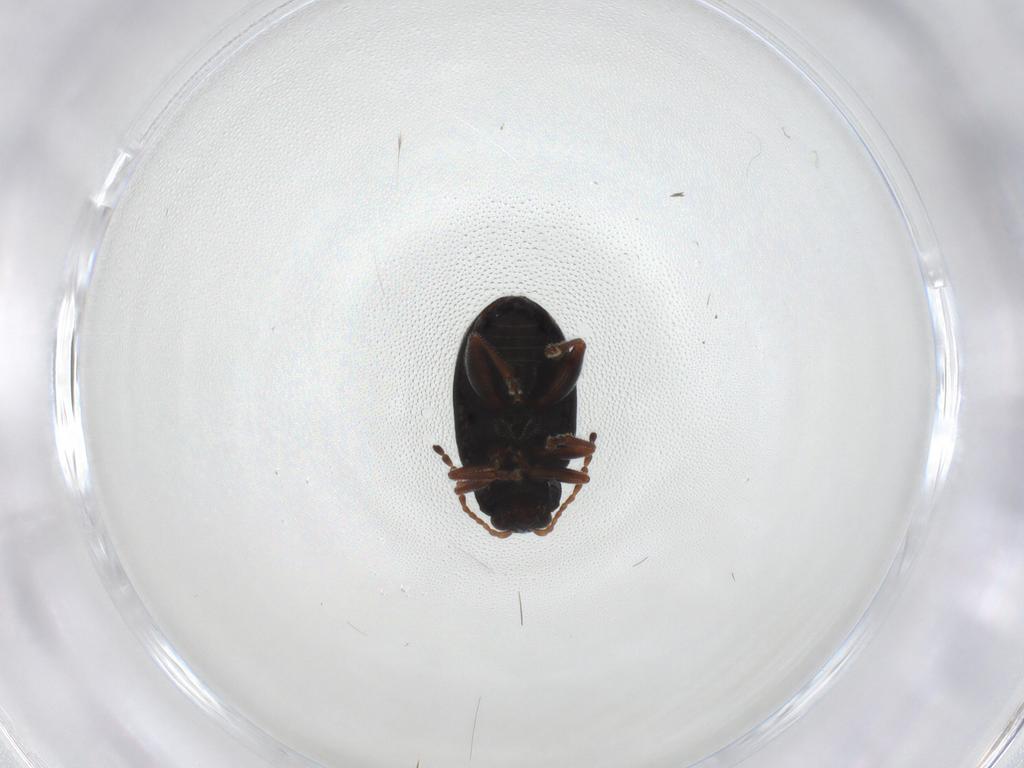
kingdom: Animalia
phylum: Arthropoda
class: Insecta
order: Coleoptera
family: Chrysomelidae
